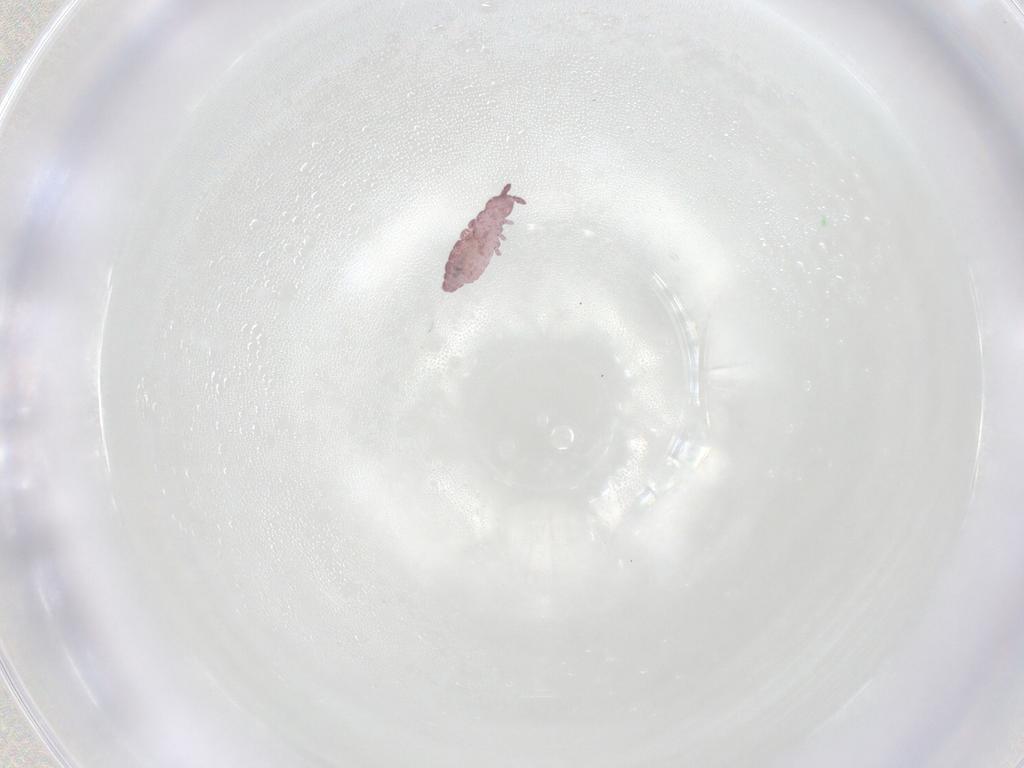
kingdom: Animalia
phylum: Arthropoda
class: Collembola
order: Poduromorpha
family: Hypogastruridae
